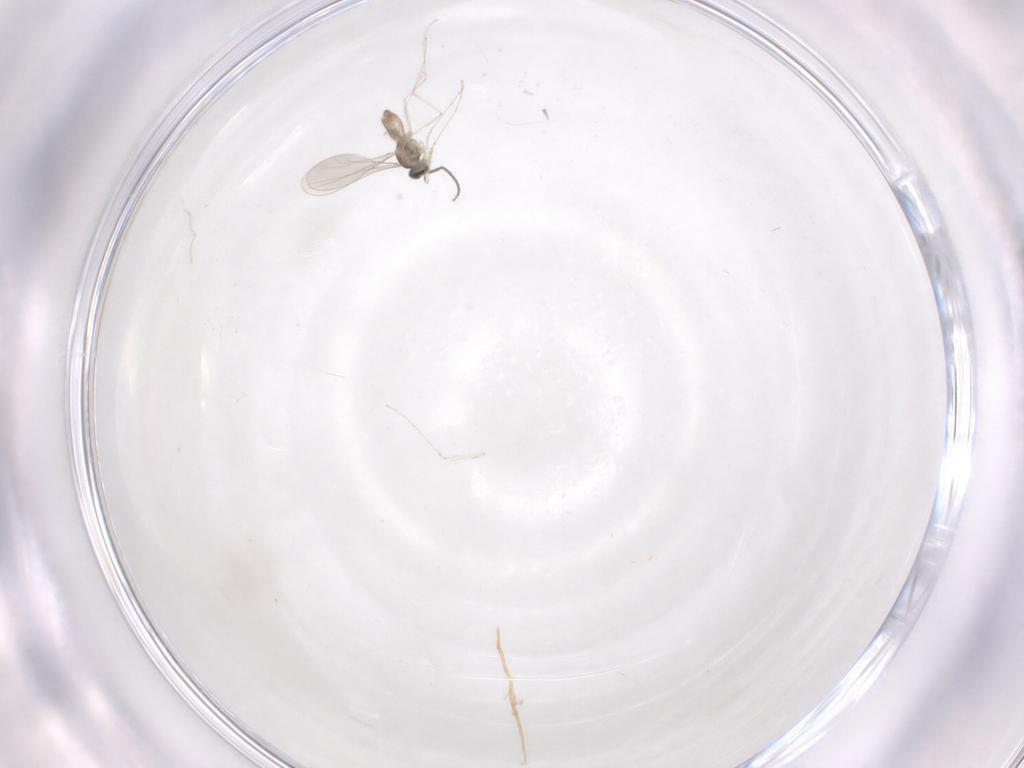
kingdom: Animalia
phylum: Arthropoda
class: Insecta
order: Diptera
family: Cecidomyiidae
